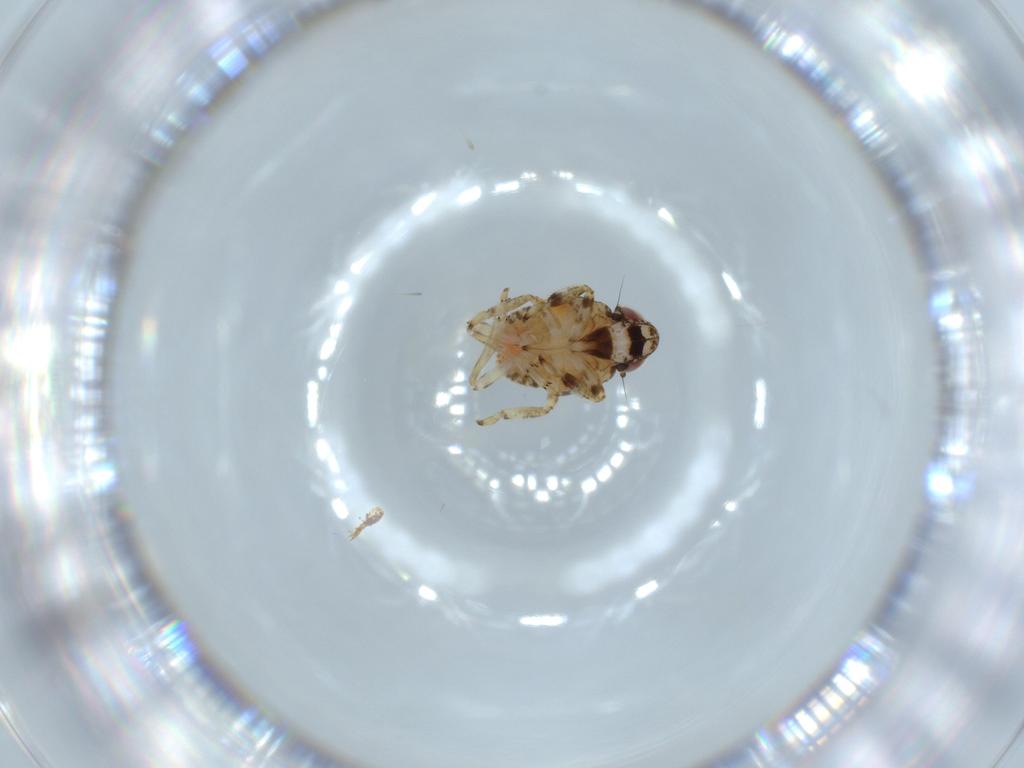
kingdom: Animalia
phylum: Arthropoda
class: Insecta
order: Hemiptera
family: Issidae
